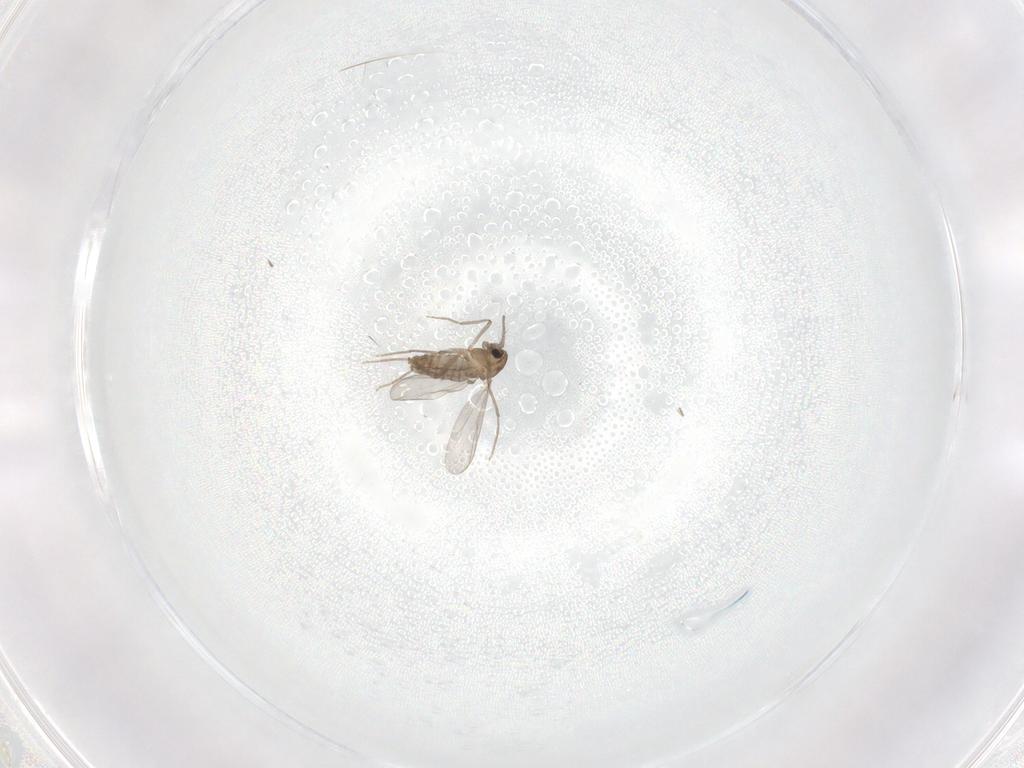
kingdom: Animalia
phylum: Arthropoda
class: Insecta
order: Diptera
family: Chironomidae
